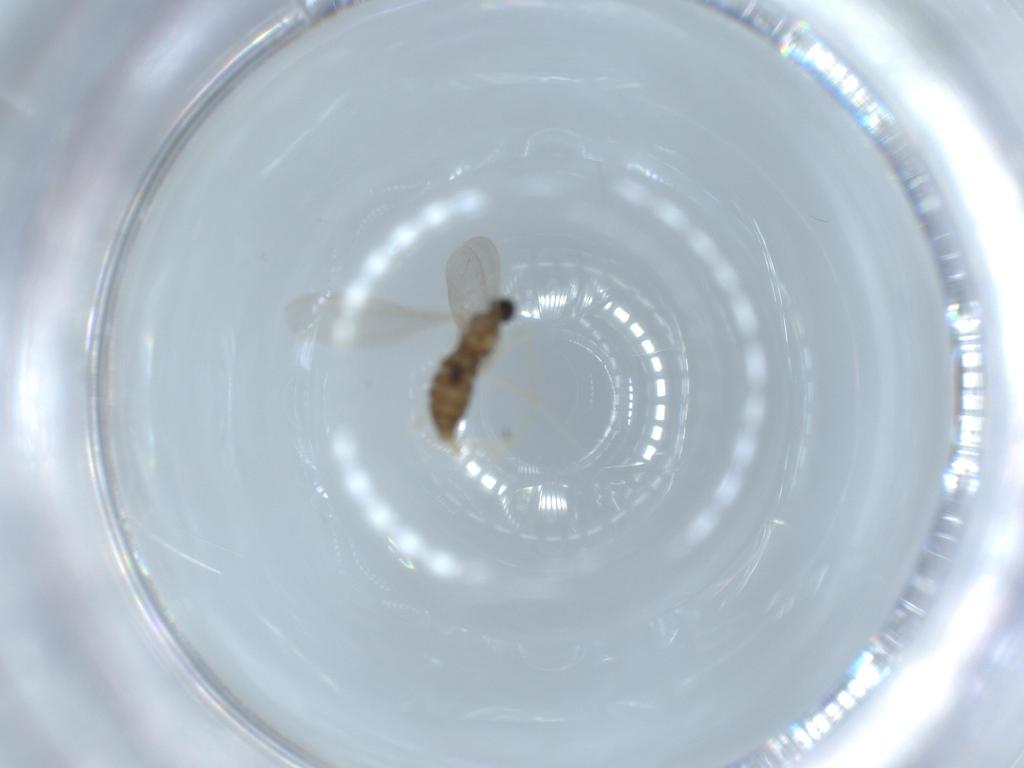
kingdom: Animalia
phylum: Arthropoda
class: Insecta
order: Diptera
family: Cecidomyiidae
